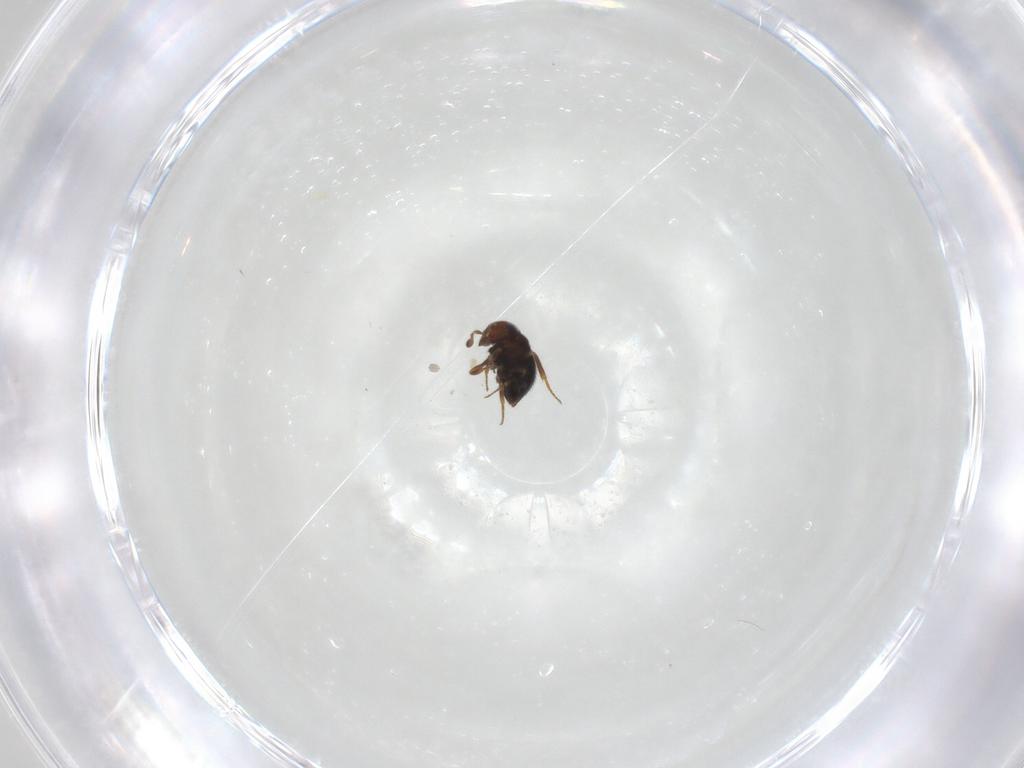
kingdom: Animalia
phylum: Arthropoda
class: Insecta
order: Hymenoptera
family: Scelionidae
